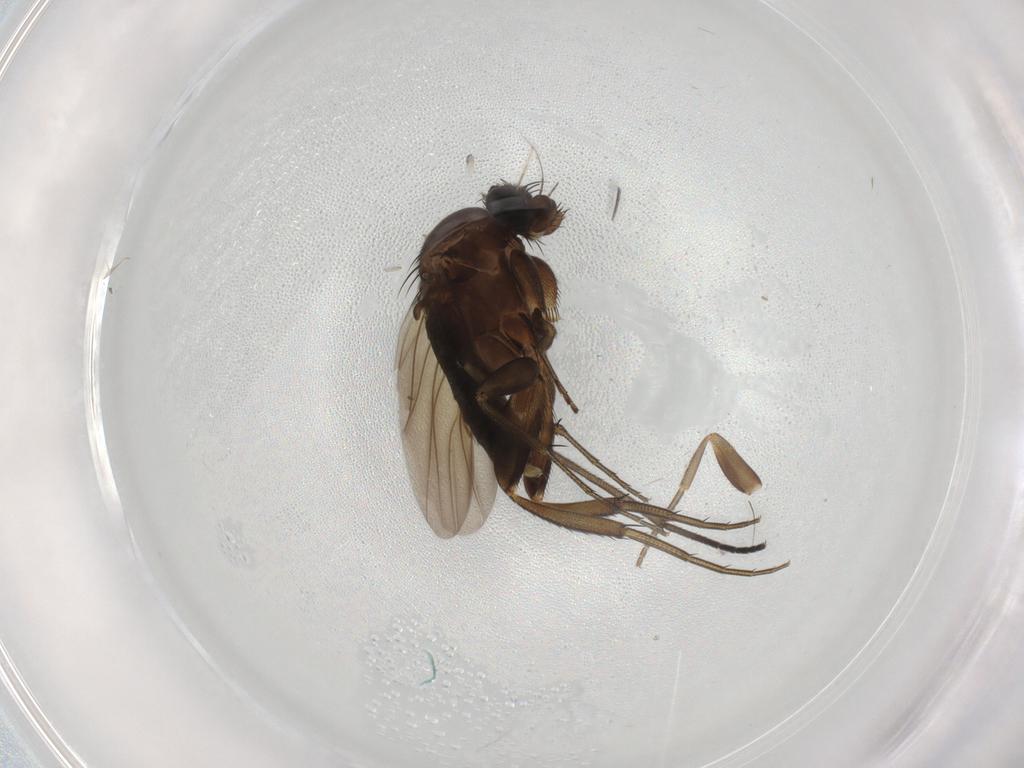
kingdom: Animalia
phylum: Arthropoda
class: Insecta
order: Diptera
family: Phoridae
